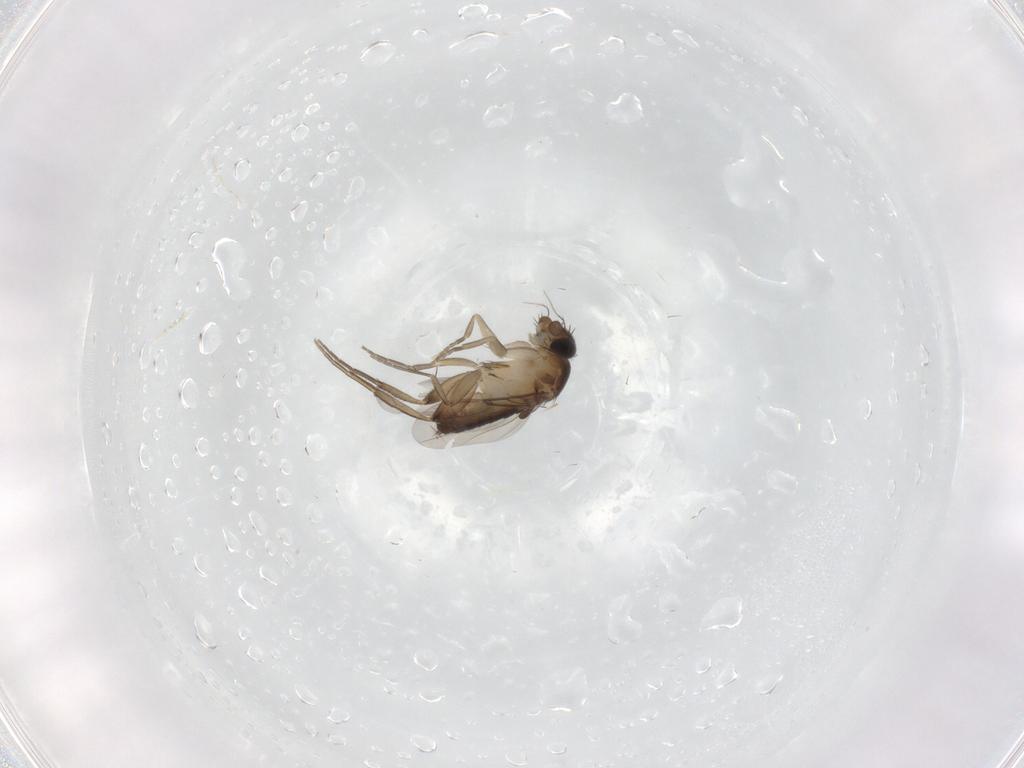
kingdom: Animalia
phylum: Arthropoda
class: Insecta
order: Diptera
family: Phoridae
